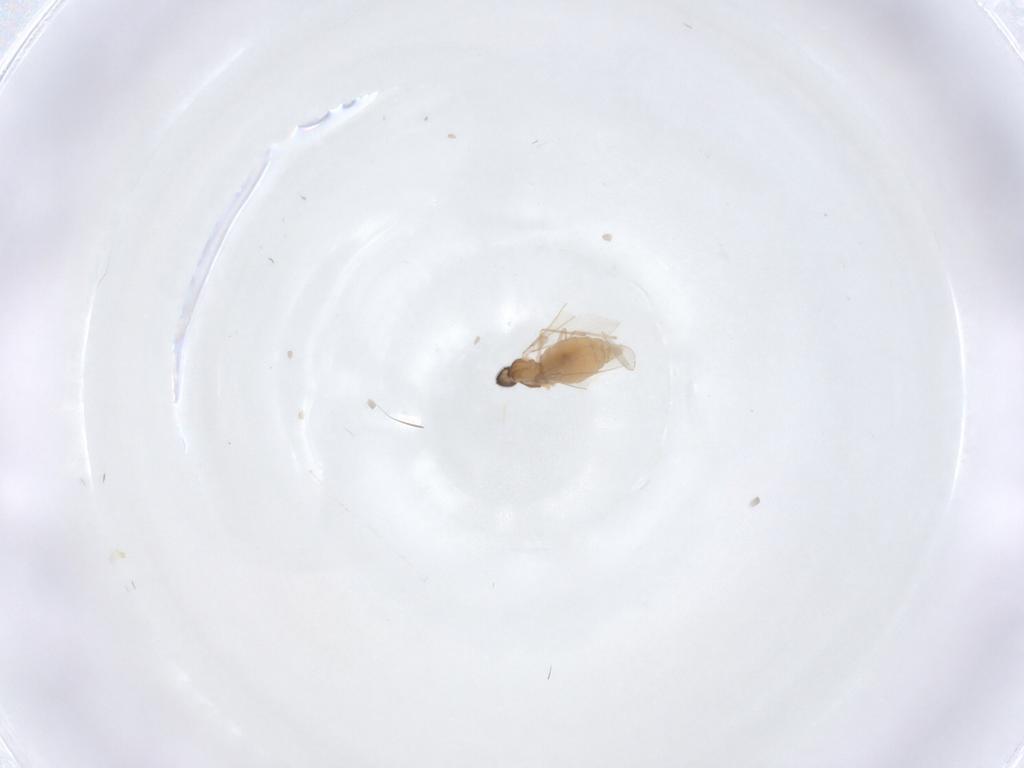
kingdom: Animalia
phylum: Arthropoda
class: Insecta
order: Diptera
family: Ceratopogonidae
